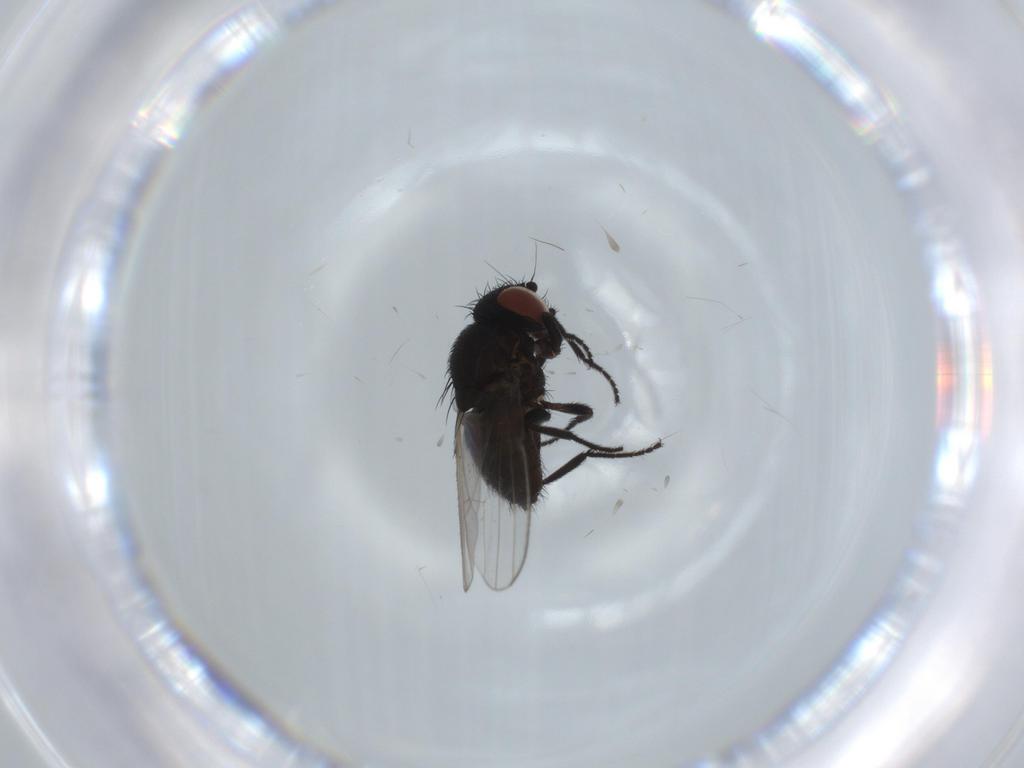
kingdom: Animalia
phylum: Arthropoda
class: Insecta
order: Diptera
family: Milichiidae
